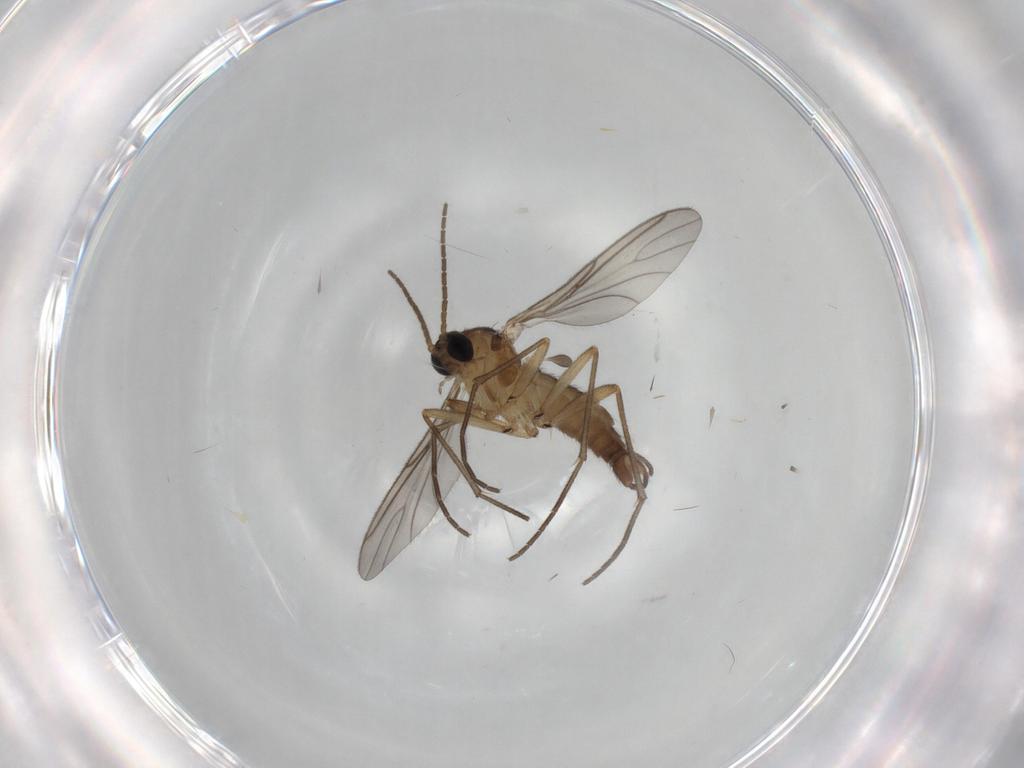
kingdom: Animalia
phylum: Arthropoda
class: Insecta
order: Diptera
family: Sciaridae
